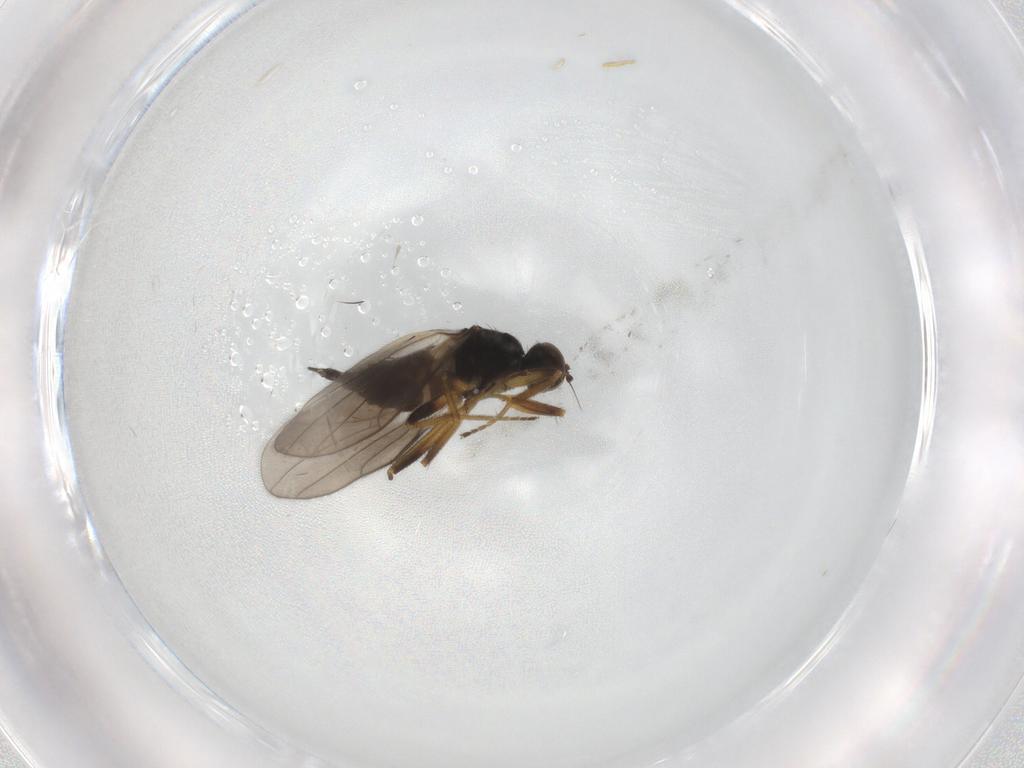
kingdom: Animalia
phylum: Arthropoda
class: Insecta
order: Diptera
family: Hybotidae
